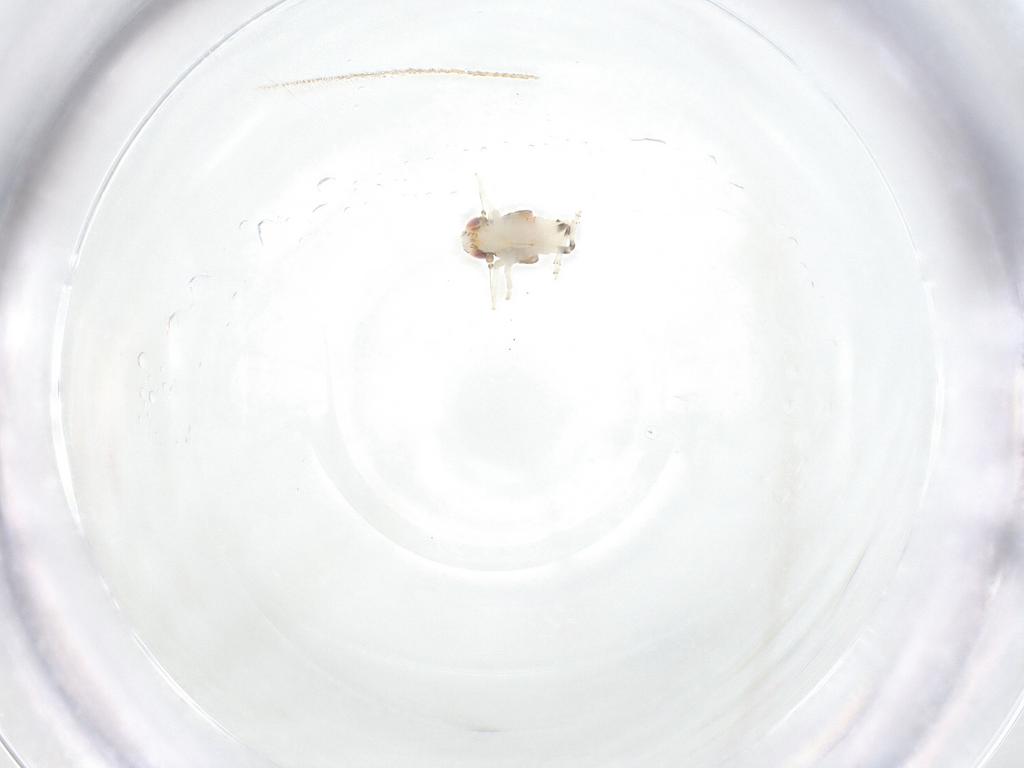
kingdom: Animalia
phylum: Arthropoda
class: Insecta
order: Hemiptera
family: Nogodinidae
